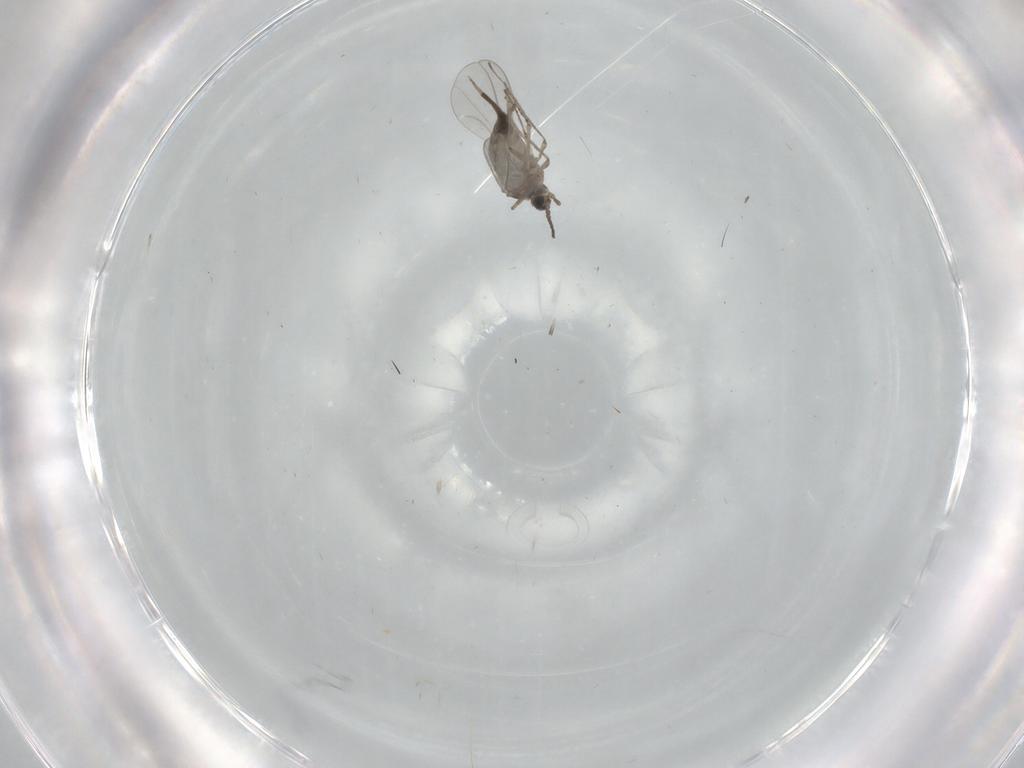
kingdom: Animalia
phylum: Arthropoda
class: Insecta
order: Diptera
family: Cecidomyiidae
